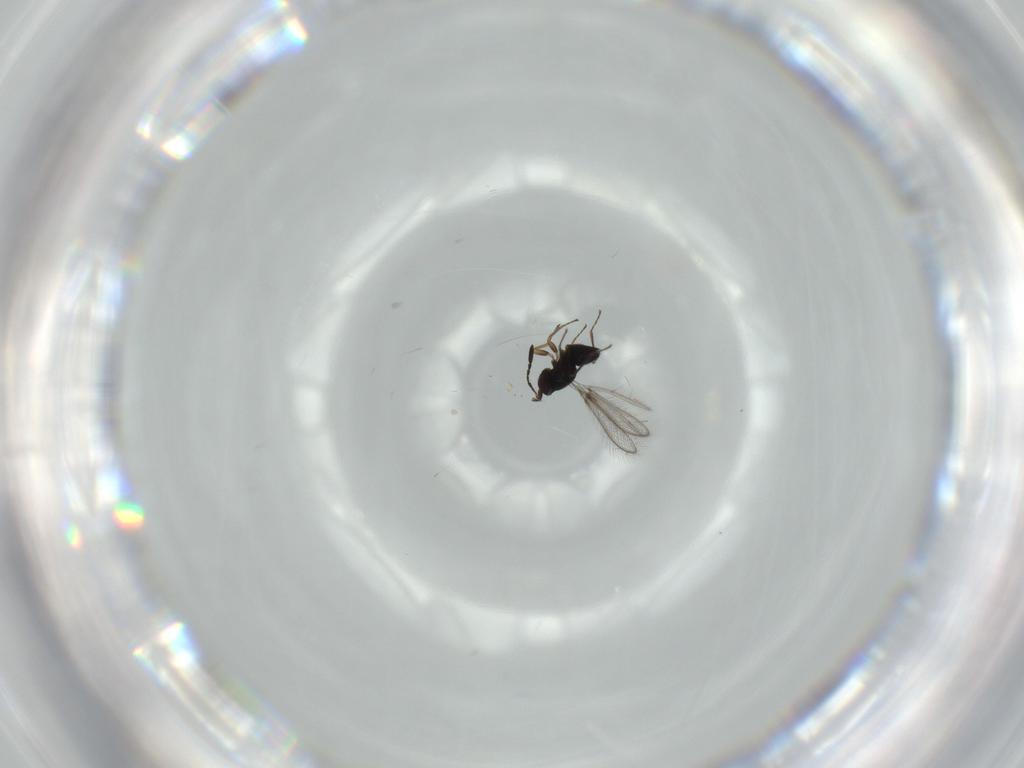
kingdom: Animalia
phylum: Arthropoda
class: Insecta
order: Hymenoptera
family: Mymaridae
